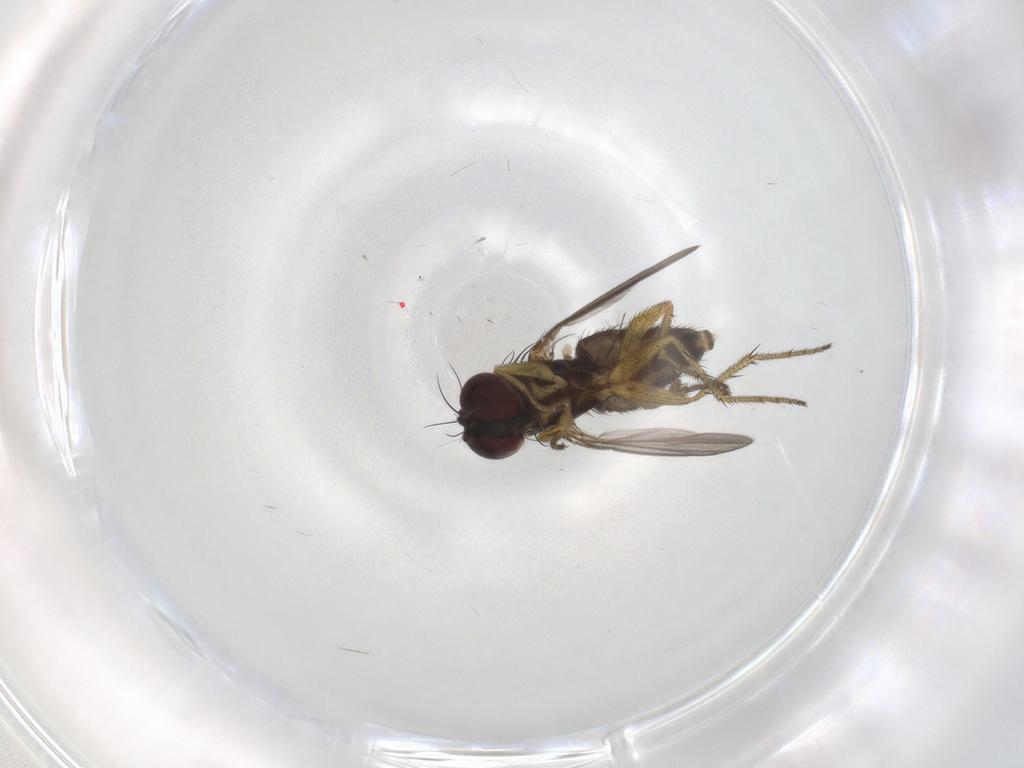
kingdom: Animalia
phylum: Arthropoda
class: Insecta
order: Diptera
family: Dolichopodidae
